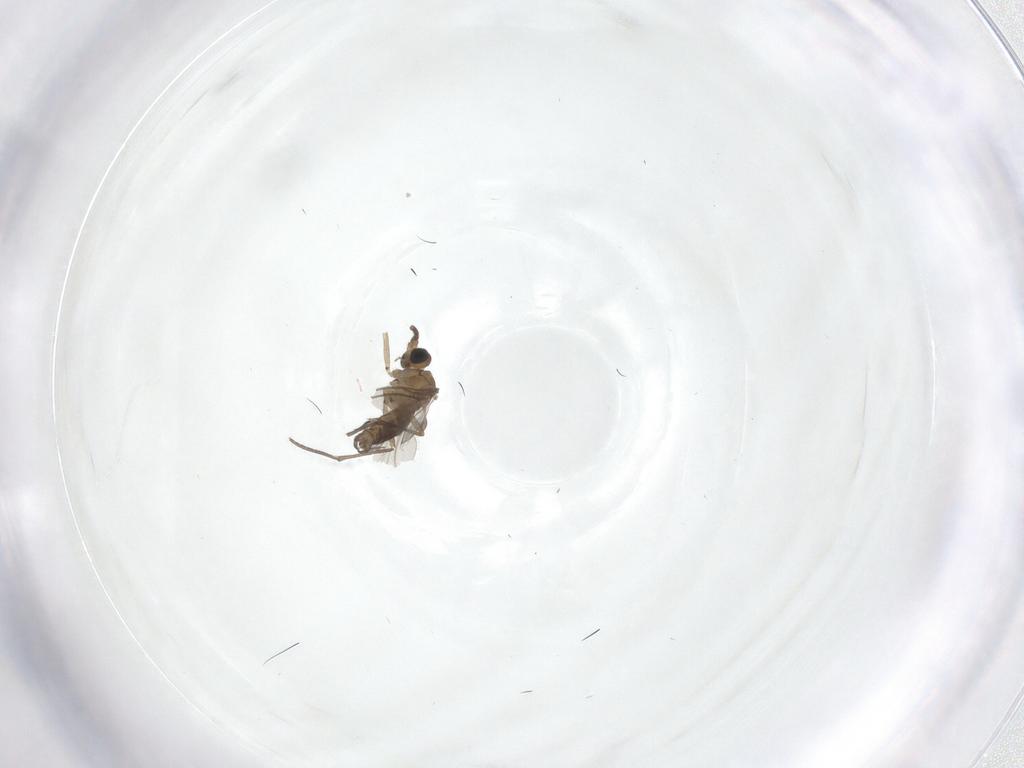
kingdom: Animalia
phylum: Arthropoda
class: Insecta
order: Diptera
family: Sciaridae
